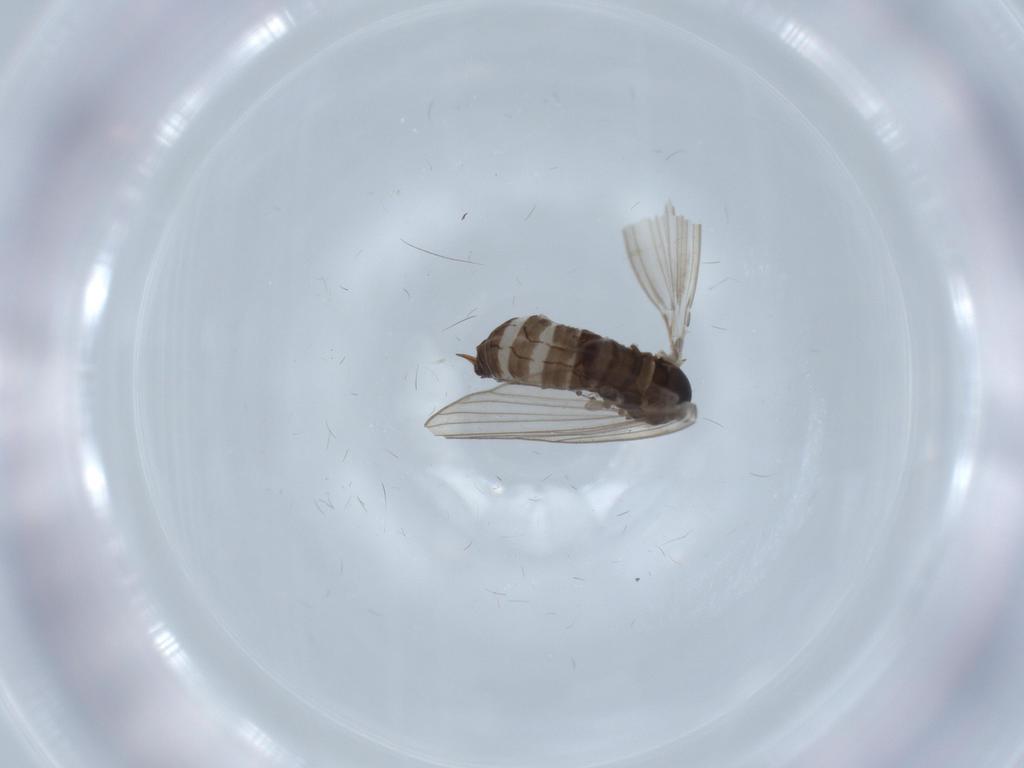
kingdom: Animalia
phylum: Arthropoda
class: Insecta
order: Diptera
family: Psychodidae
